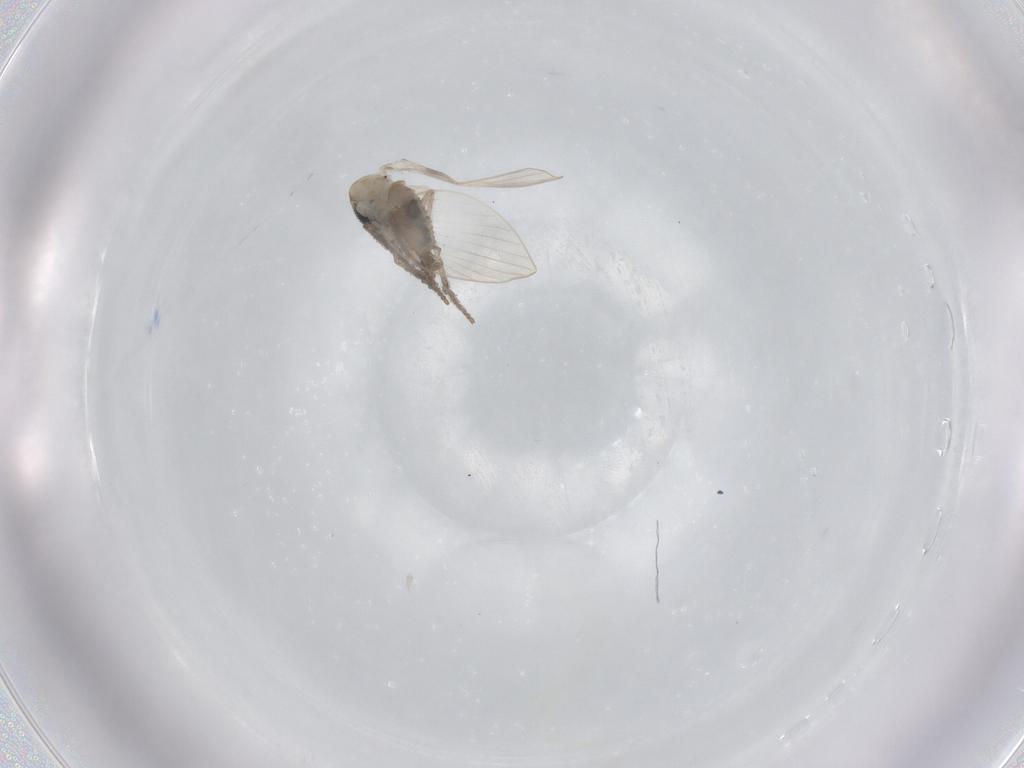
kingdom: Animalia
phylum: Arthropoda
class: Insecta
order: Diptera
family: Psychodidae
